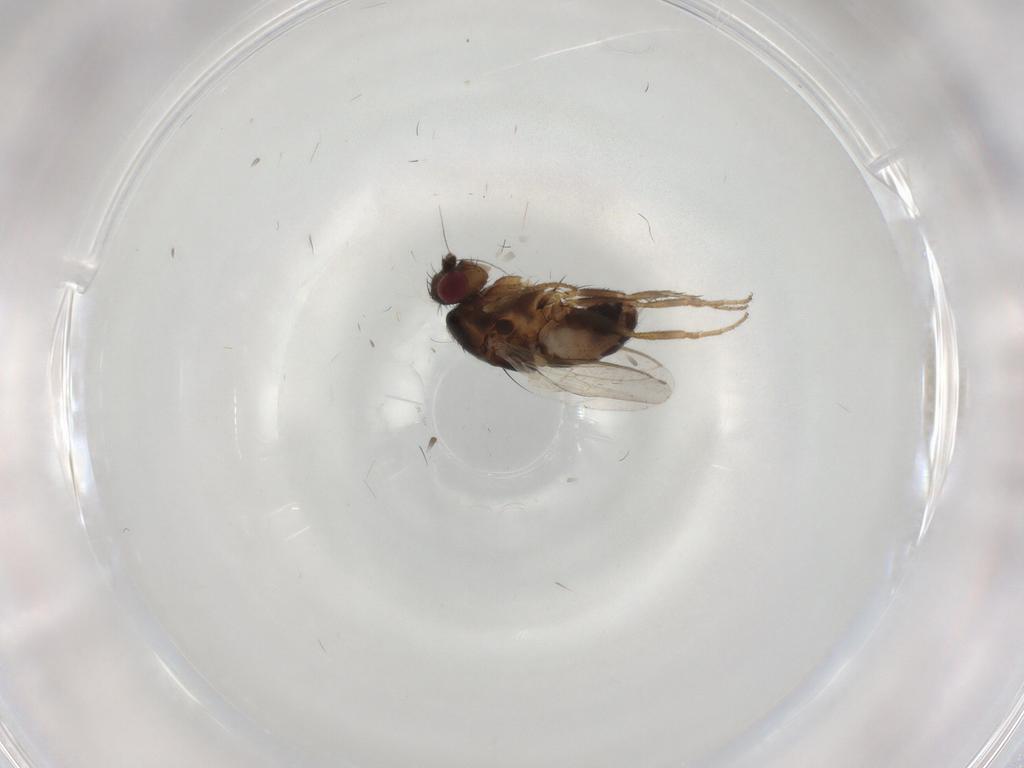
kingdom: Animalia
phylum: Arthropoda
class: Insecta
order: Diptera
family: Sphaeroceridae
